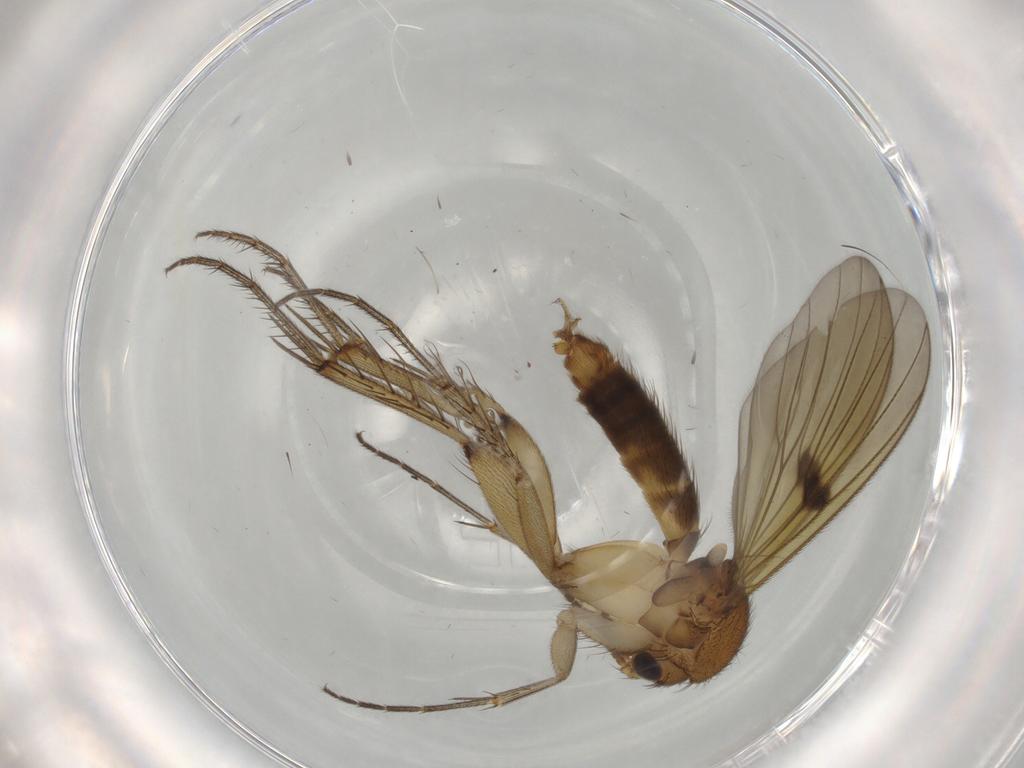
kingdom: Animalia
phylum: Arthropoda
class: Insecta
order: Diptera
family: Mycetophilidae
